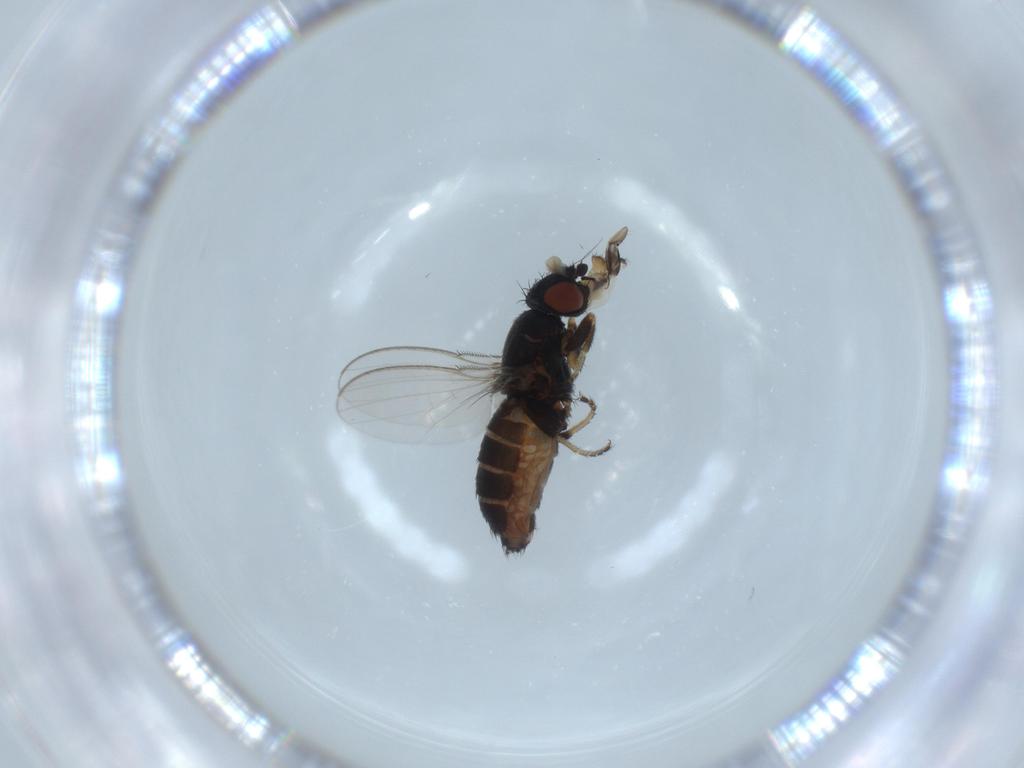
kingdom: Animalia
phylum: Arthropoda
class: Insecta
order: Diptera
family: Milichiidae
